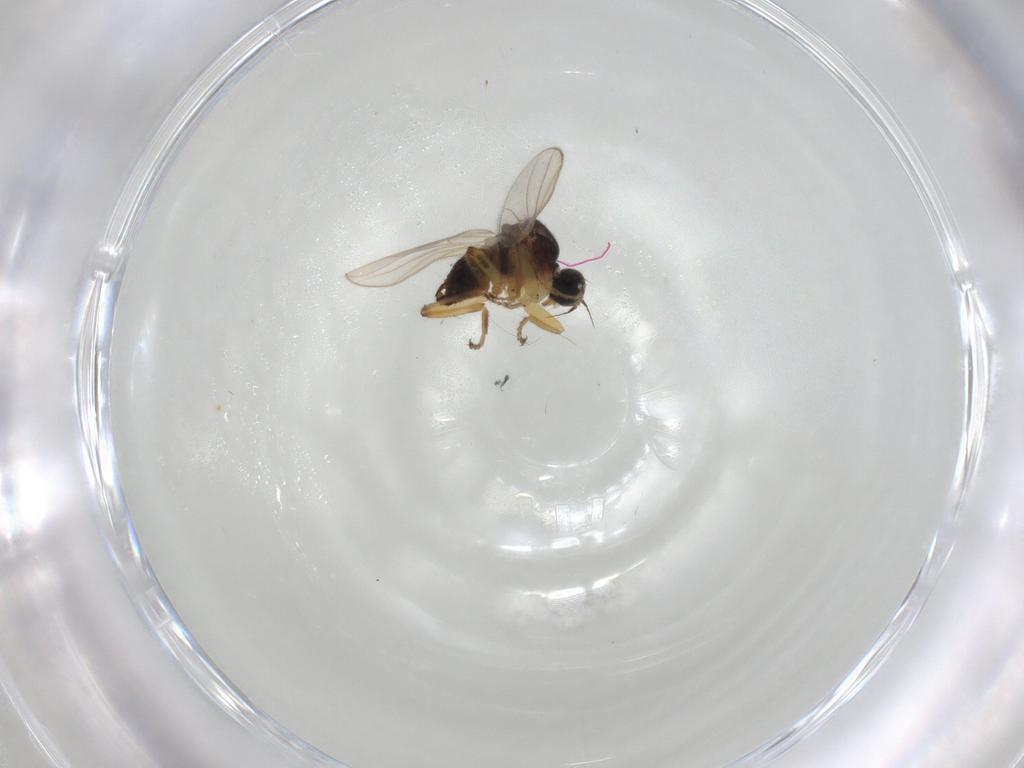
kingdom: Animalia
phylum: Arthropoda
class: Insecta
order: Diptera
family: Hybotidae
